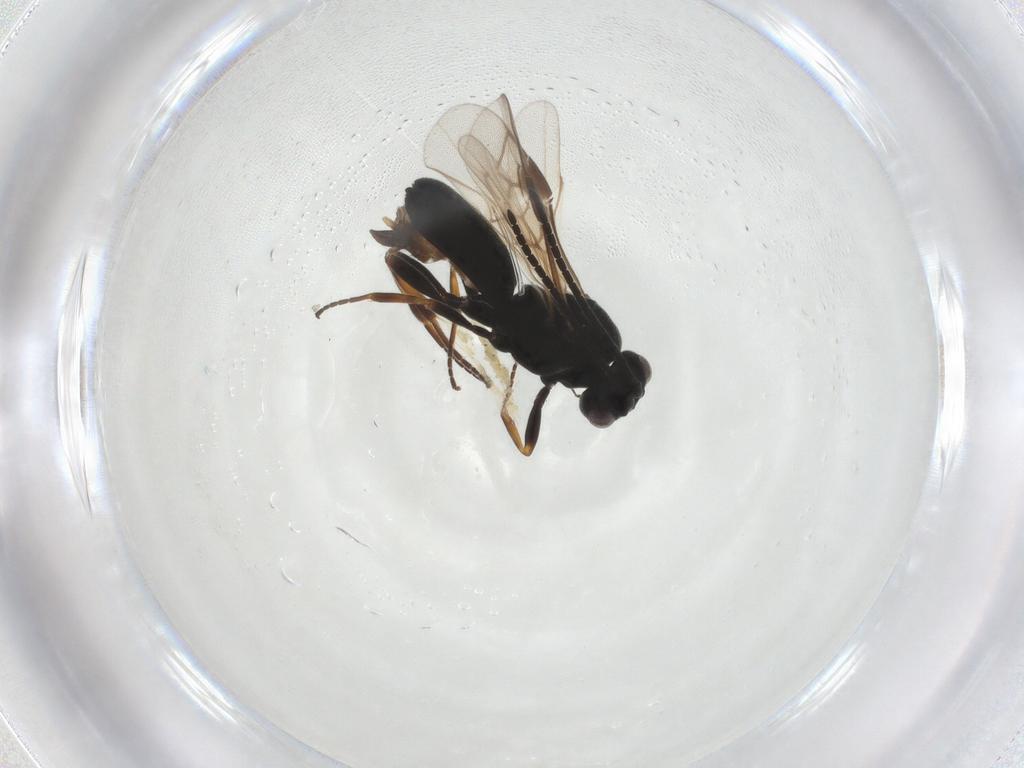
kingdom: Animalia
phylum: Arthropoda
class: Insecta
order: Hymenoptera
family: Braconidae
